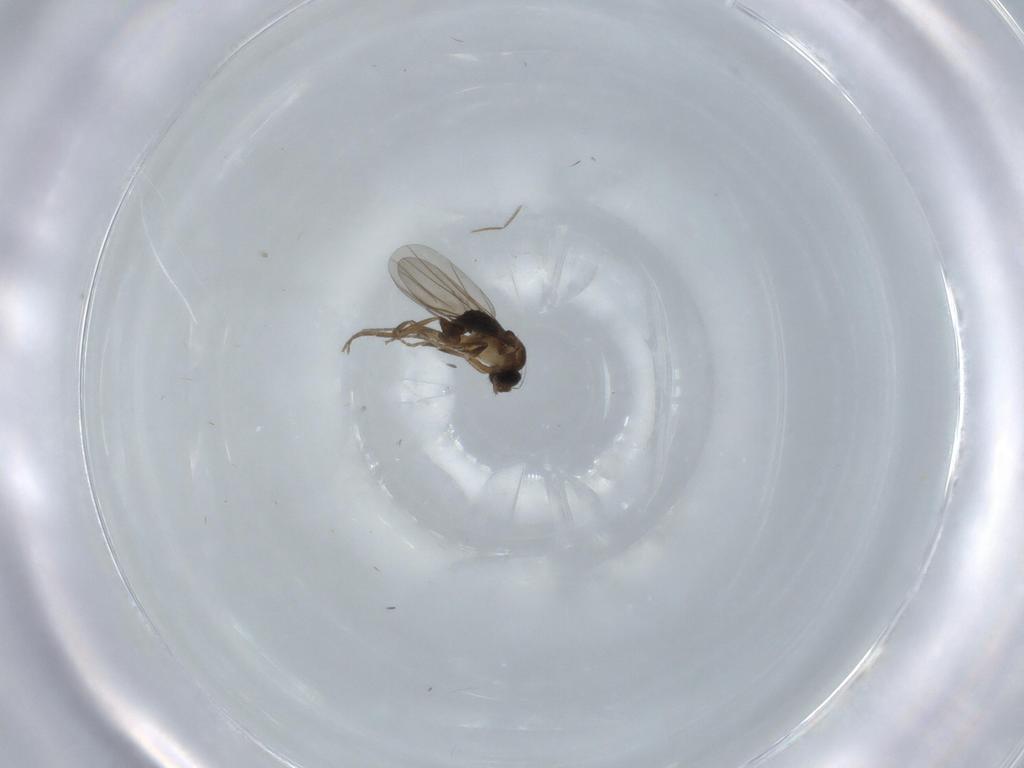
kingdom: Animalia
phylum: Arthropoda
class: Insecta
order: Diptera
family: Phoridae
